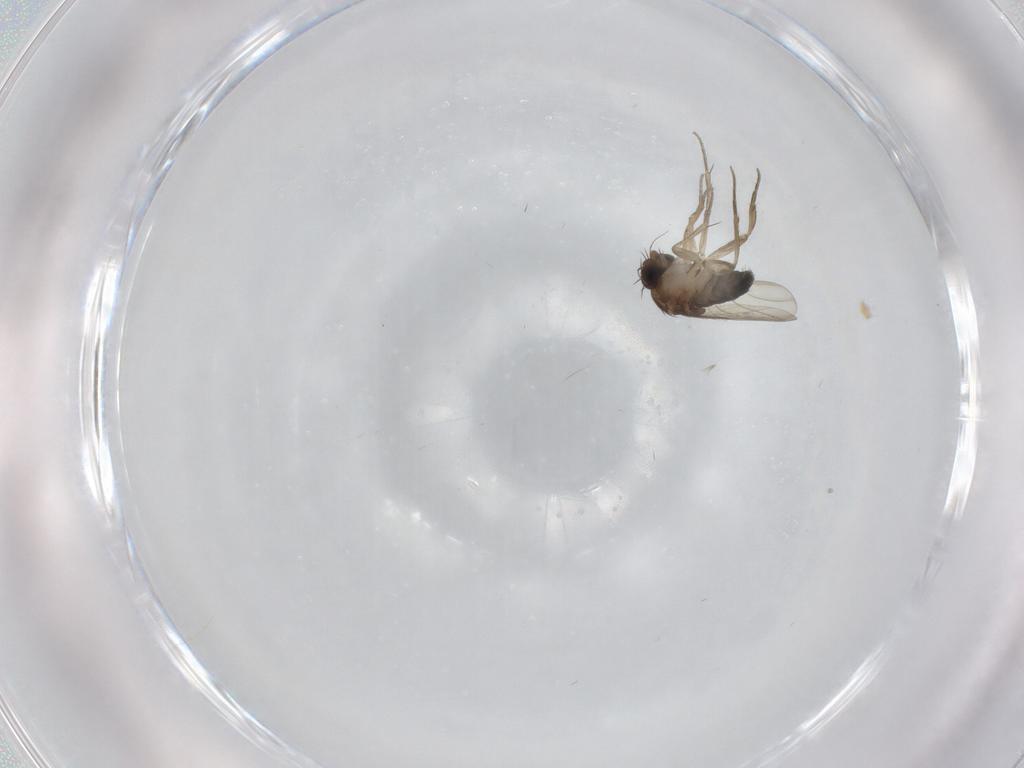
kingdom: Animalia
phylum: Arthropoda
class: Insecta
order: Diptera
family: Phoridae
